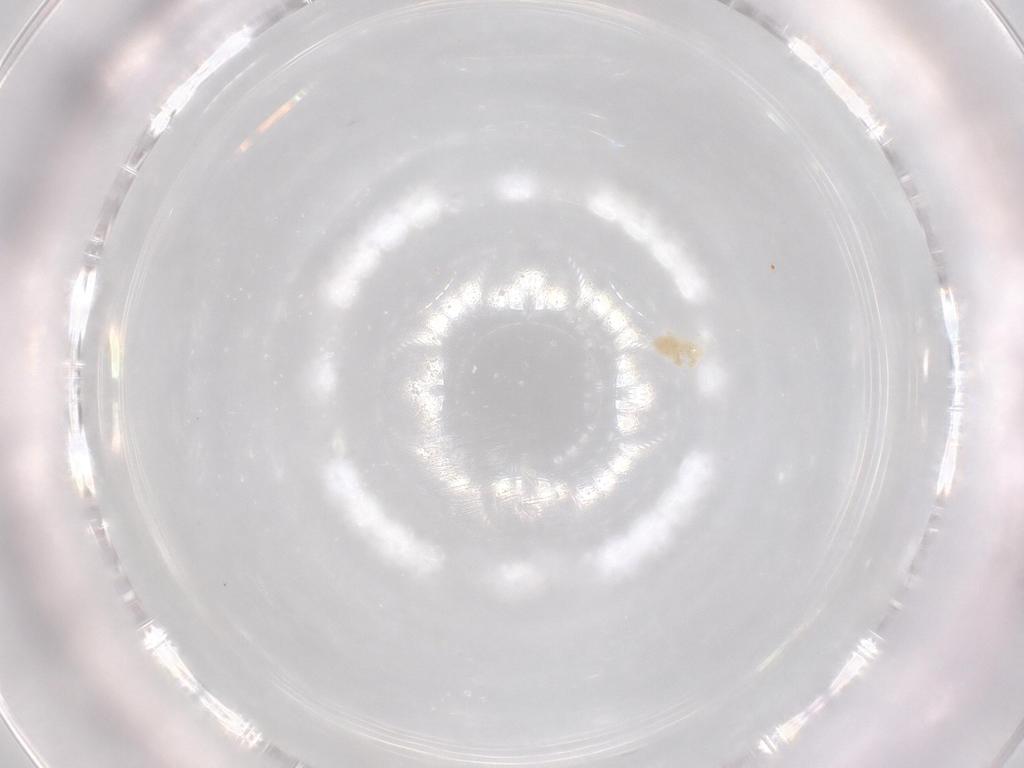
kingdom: Animalia
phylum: Arthropoda
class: Arachnida
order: Trombidiformes
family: Eupodidae
